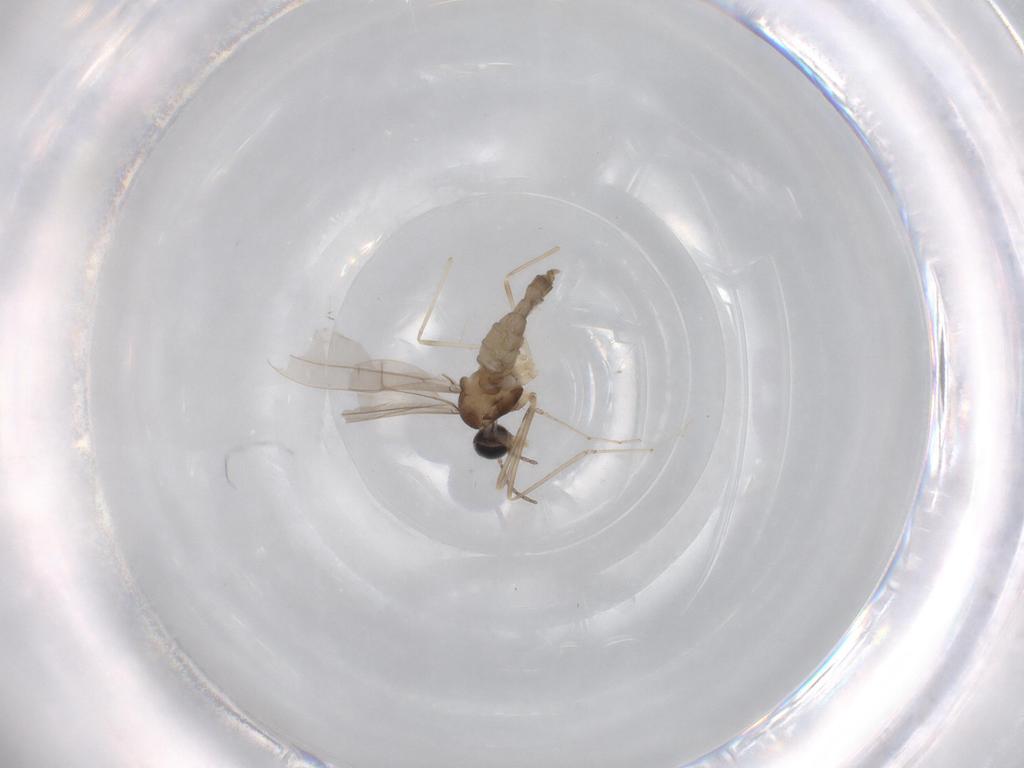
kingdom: Animalia
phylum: Arthropoda
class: Insecta
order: Diptera
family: Cecidomyiidae
